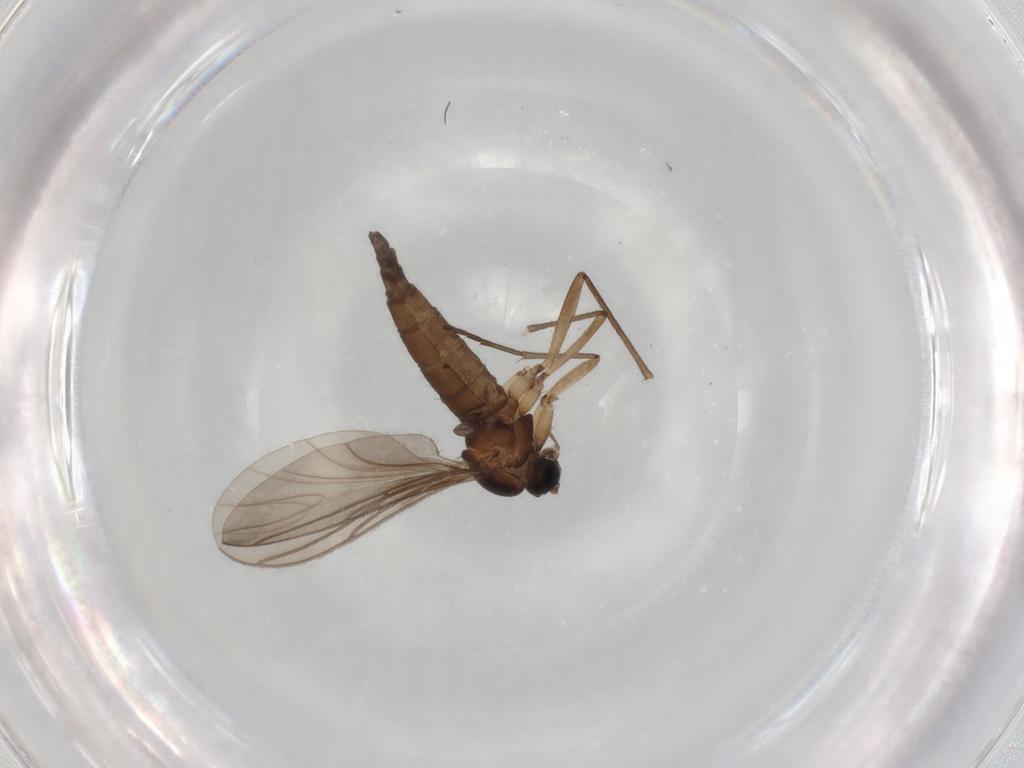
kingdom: Animalia
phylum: Arthropoda
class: Insecta
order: Diptera
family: Sciaridae
